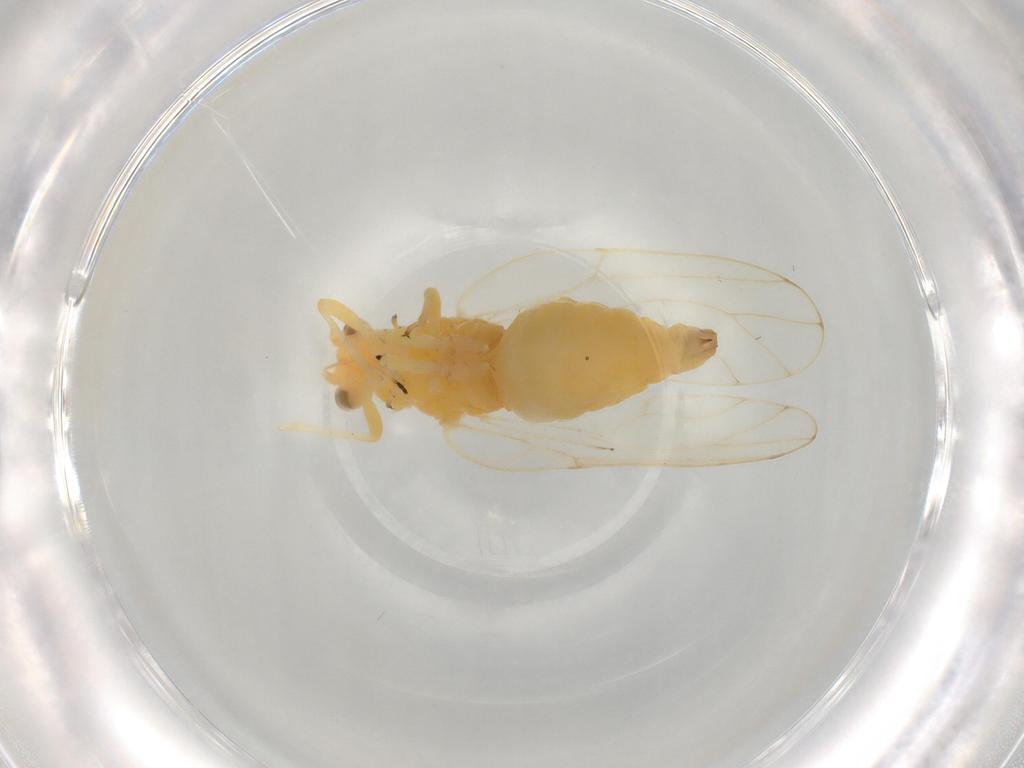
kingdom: Animalia
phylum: Arthropoda
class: Insecta
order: Hemiptera
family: Aphalaridae
